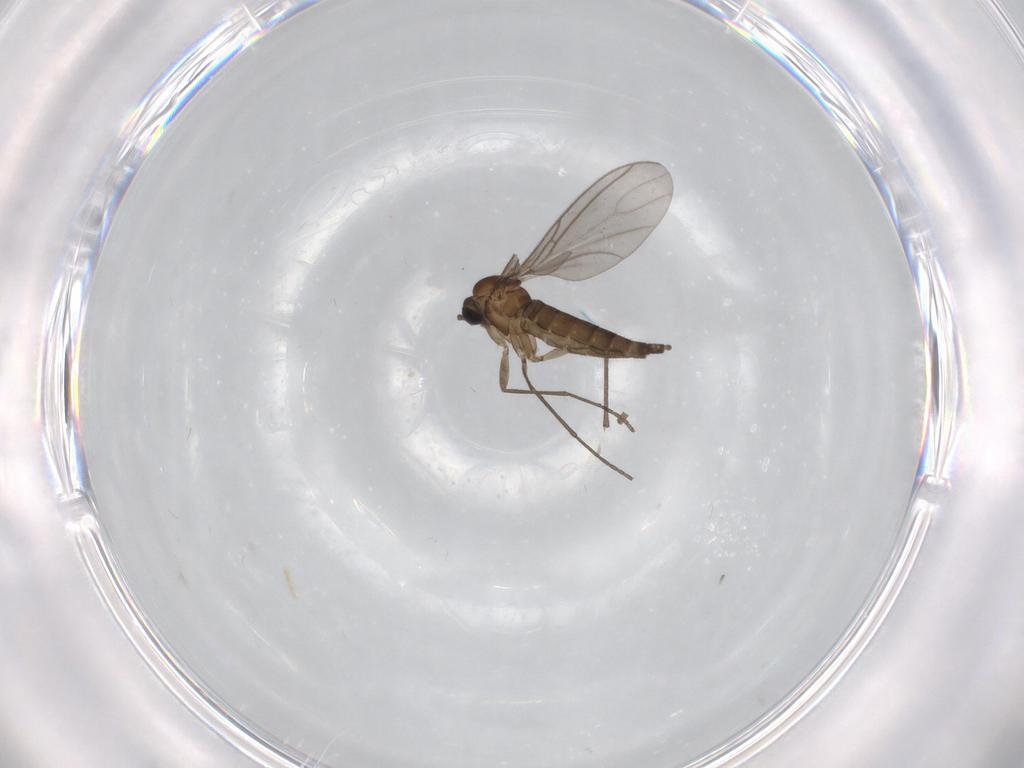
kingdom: Animalia
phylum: Arthropoda
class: Insecta
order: Diptera
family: Sciaridae
